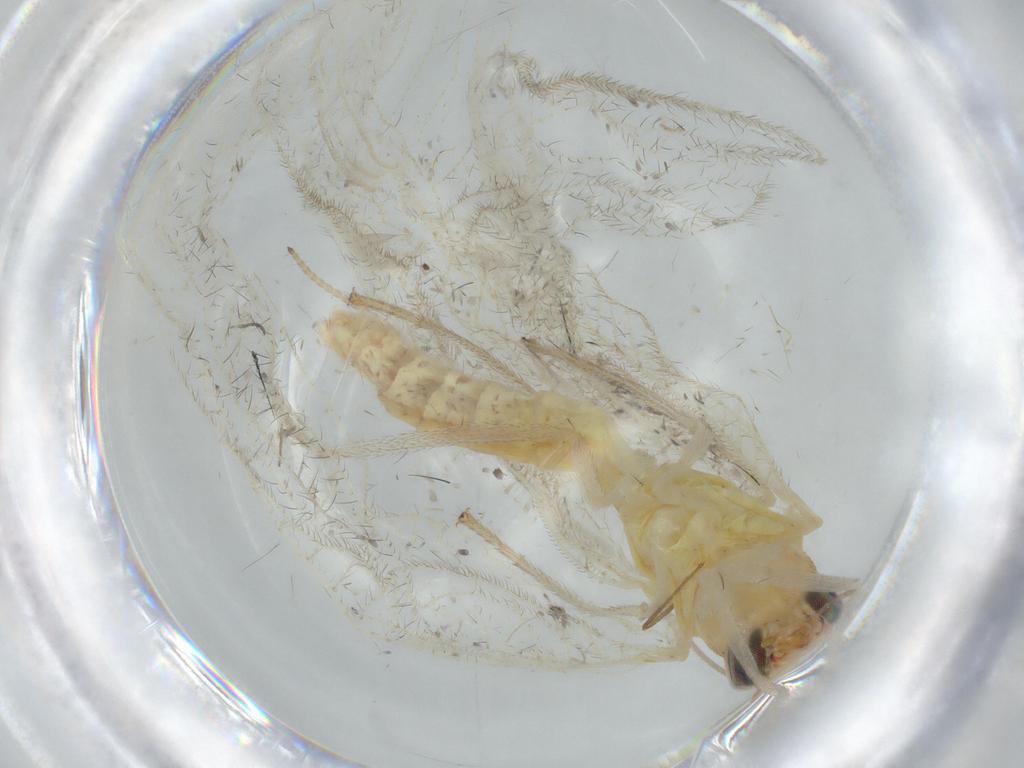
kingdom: Animalia
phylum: Arthropoda
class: Insecta
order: Neuroptera
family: Chrysopidae
